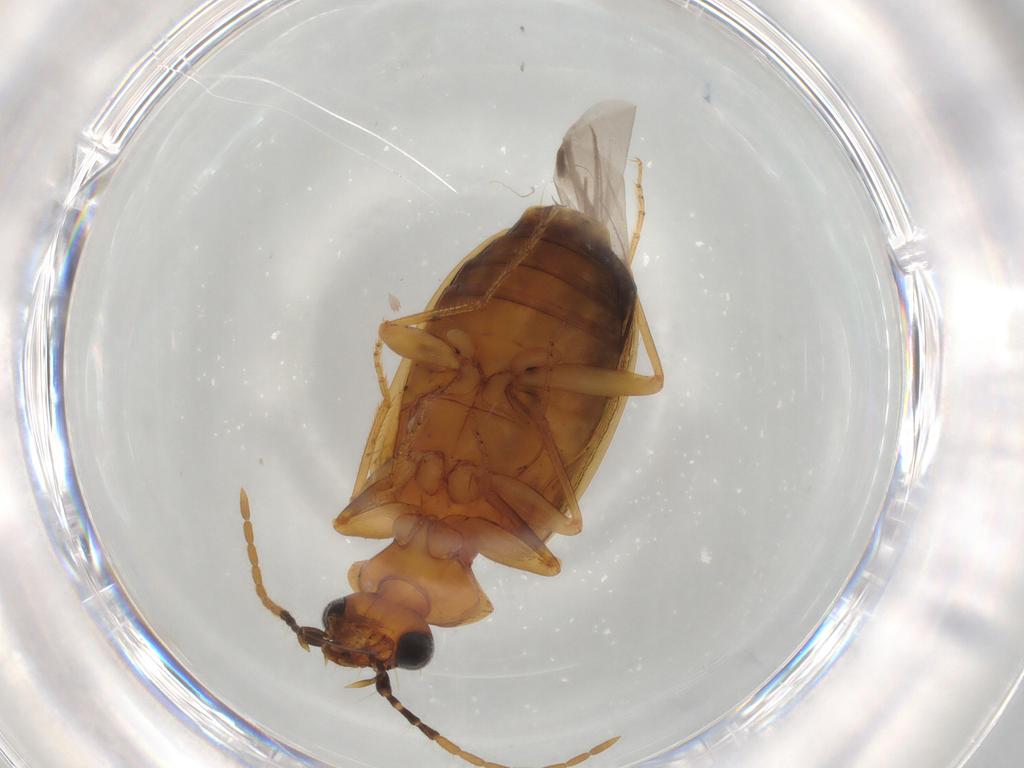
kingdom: Animalia
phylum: Arthropoda
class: Insecta
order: Coleoptera
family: Carabidae
